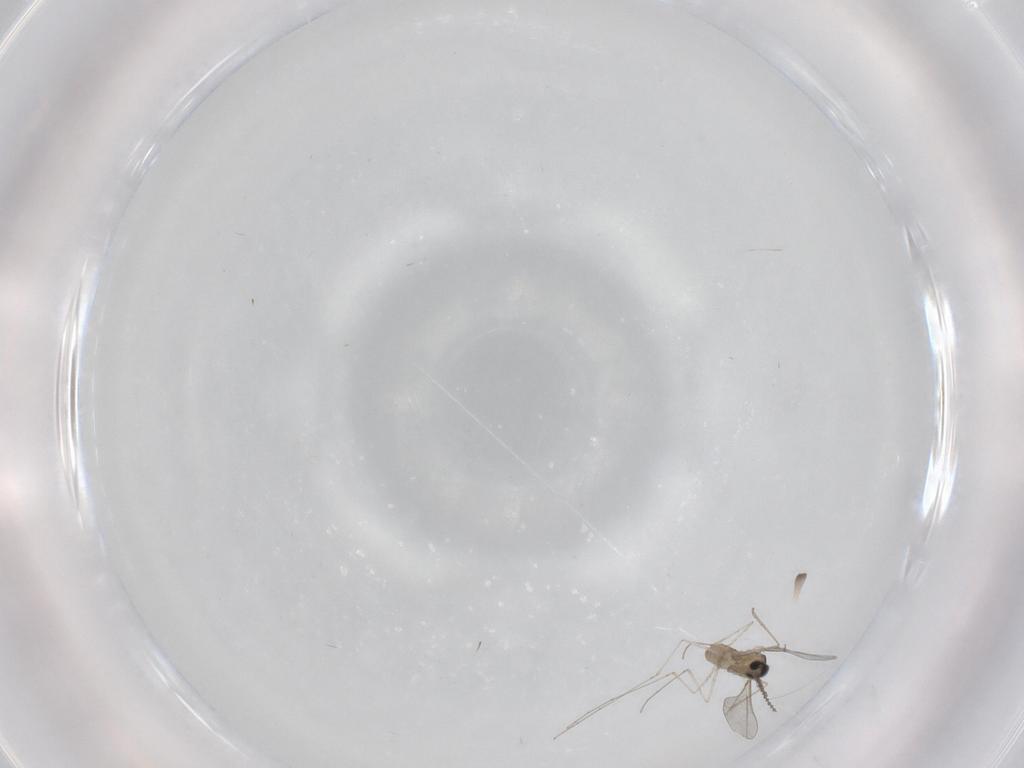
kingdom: Animalia
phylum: Arthropoda
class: Insecta
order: Diptera
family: Cecidomyiidae
